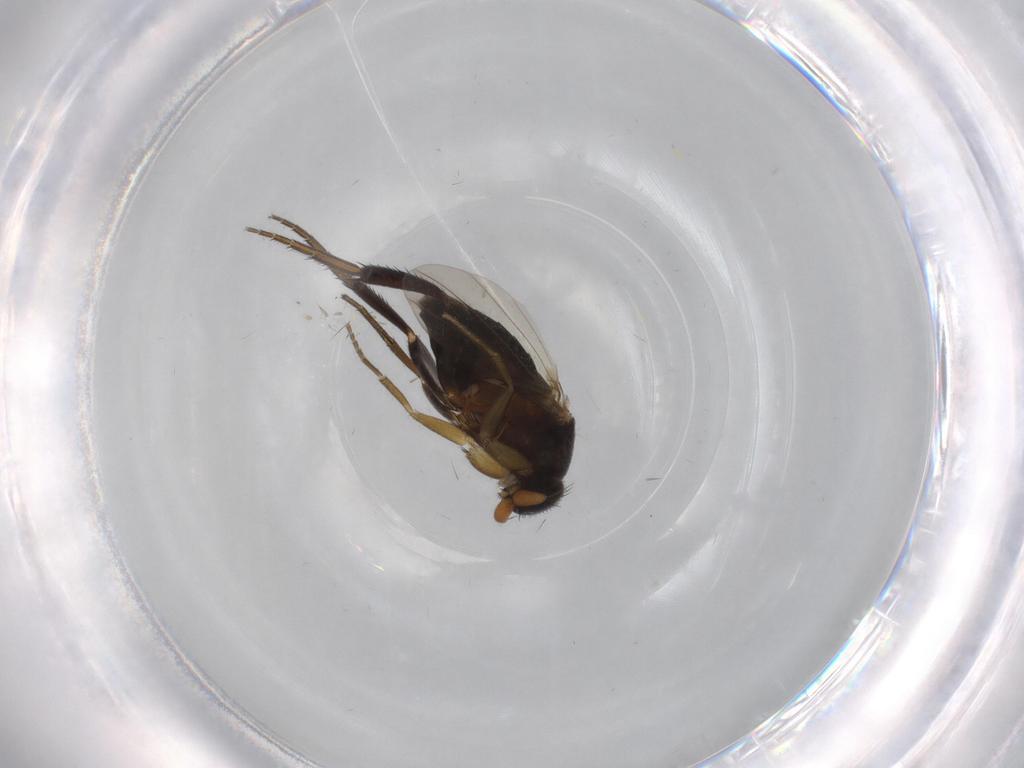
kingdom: Animalia
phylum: Arthropoda
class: Insecta
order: Diptera
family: Phoridae
